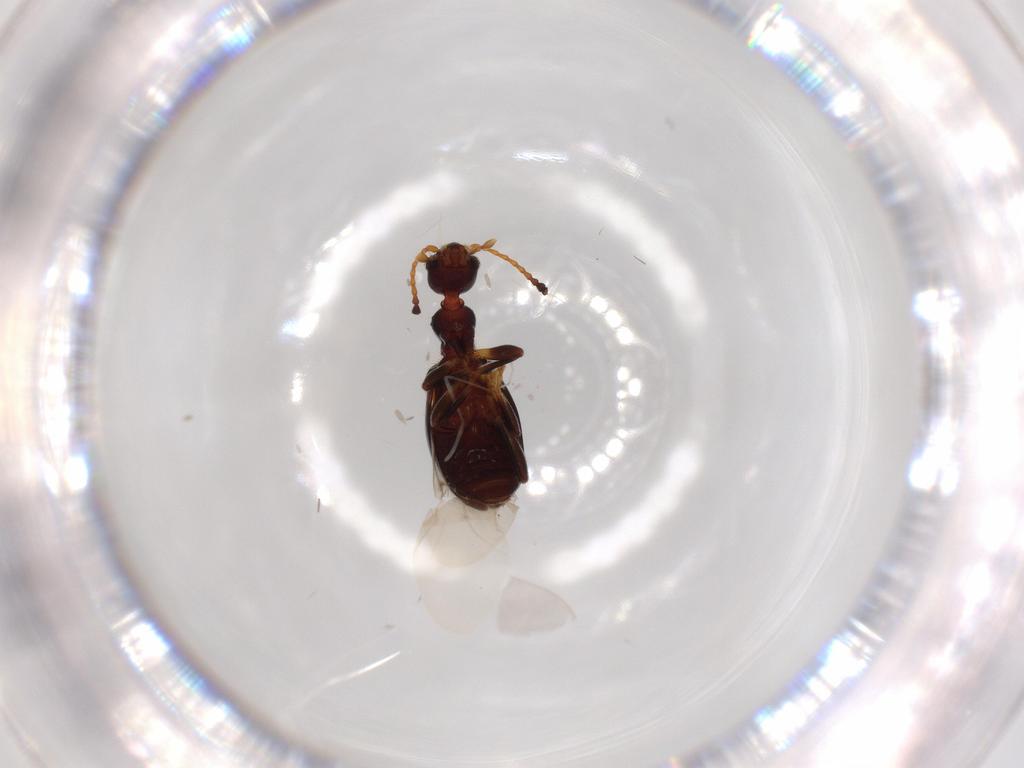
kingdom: Animalia
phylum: Arthropoda
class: Insecta
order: Coleoptera
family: Anthicidae
